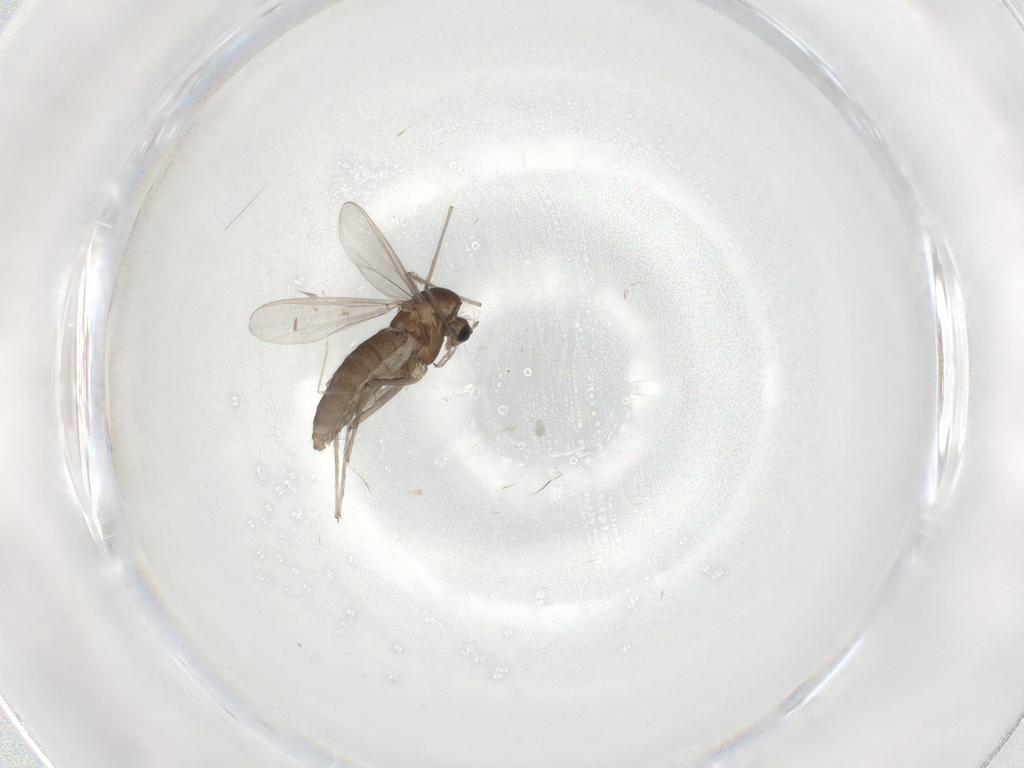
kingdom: Animalia
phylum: Arthropoda
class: Insecta
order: Diptera
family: Chironomidae
